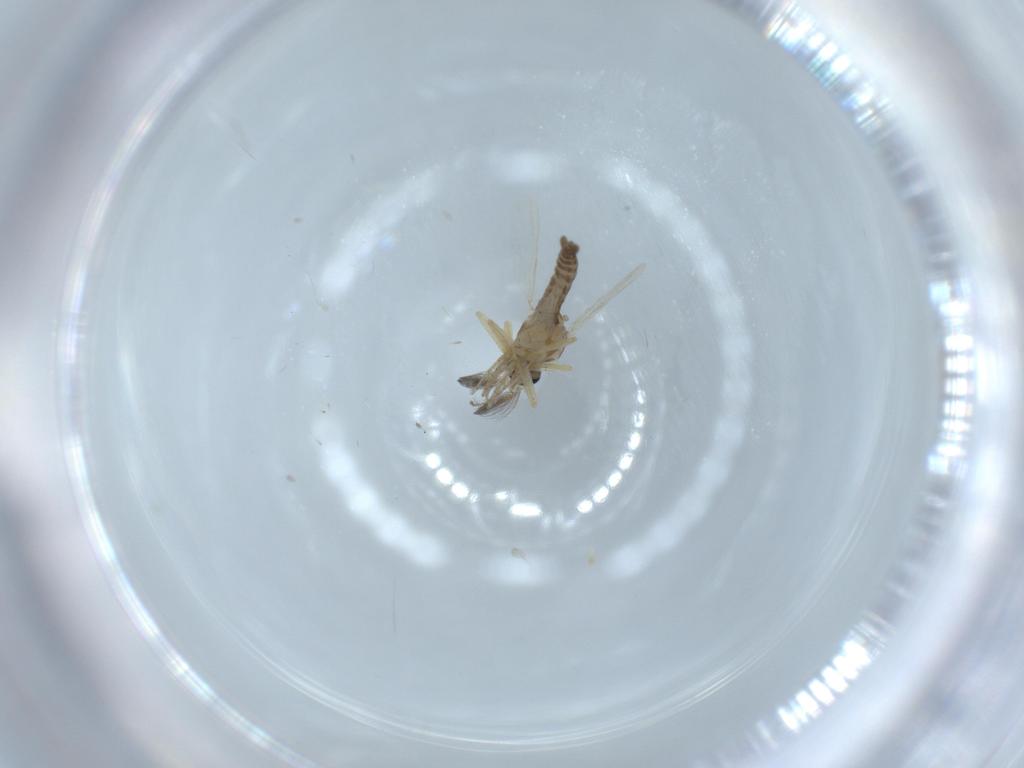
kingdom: Animalia
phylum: Arthropoda
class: Insecta
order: Diptera
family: Ceratopogonidae
